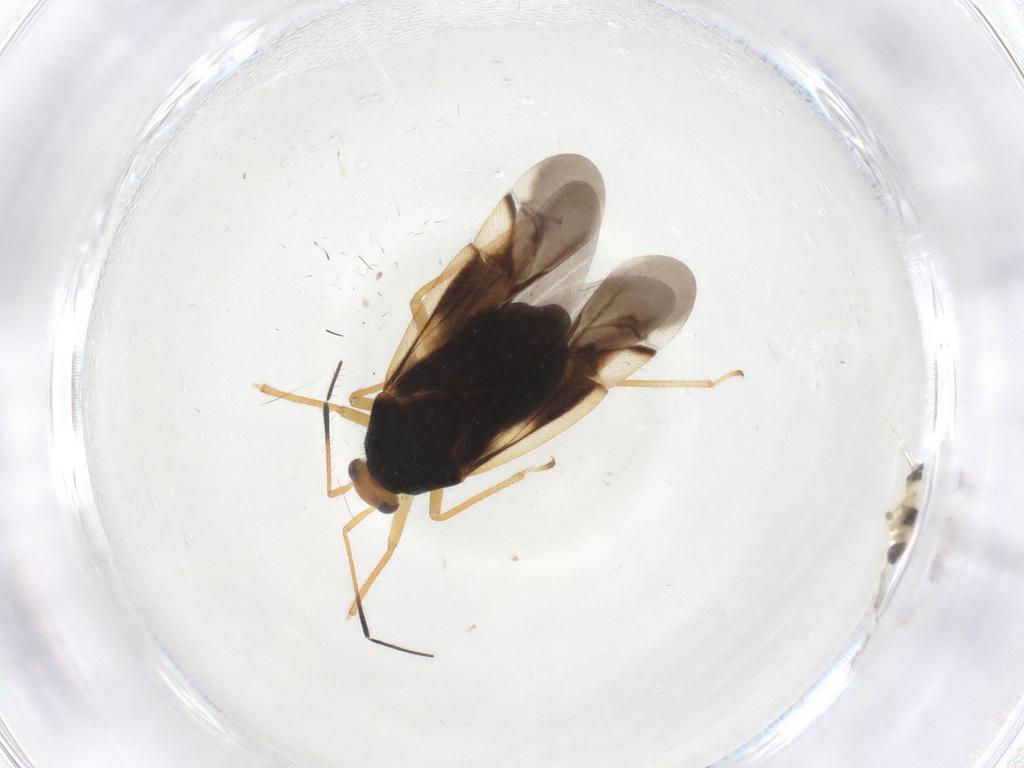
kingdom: Animalia
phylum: Arthropoda
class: Insecta
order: Hemiptera
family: Miridae
